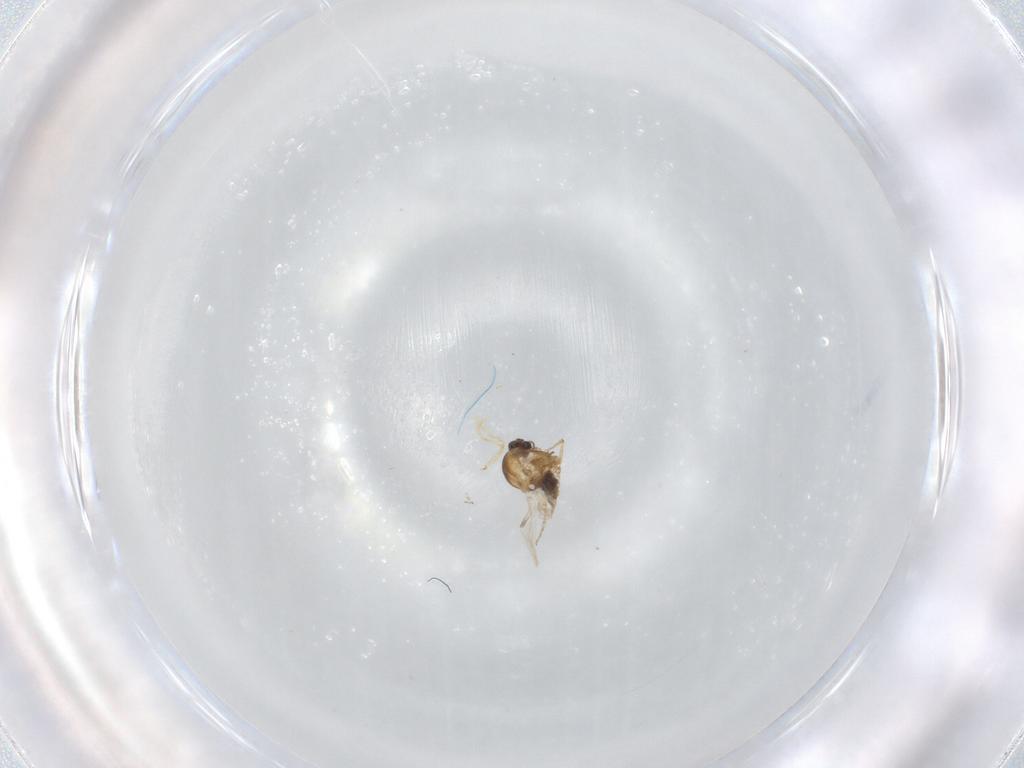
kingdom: Animalia
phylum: Arthropoda
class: Insecta
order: Diptera
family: Ceratopogonidae
